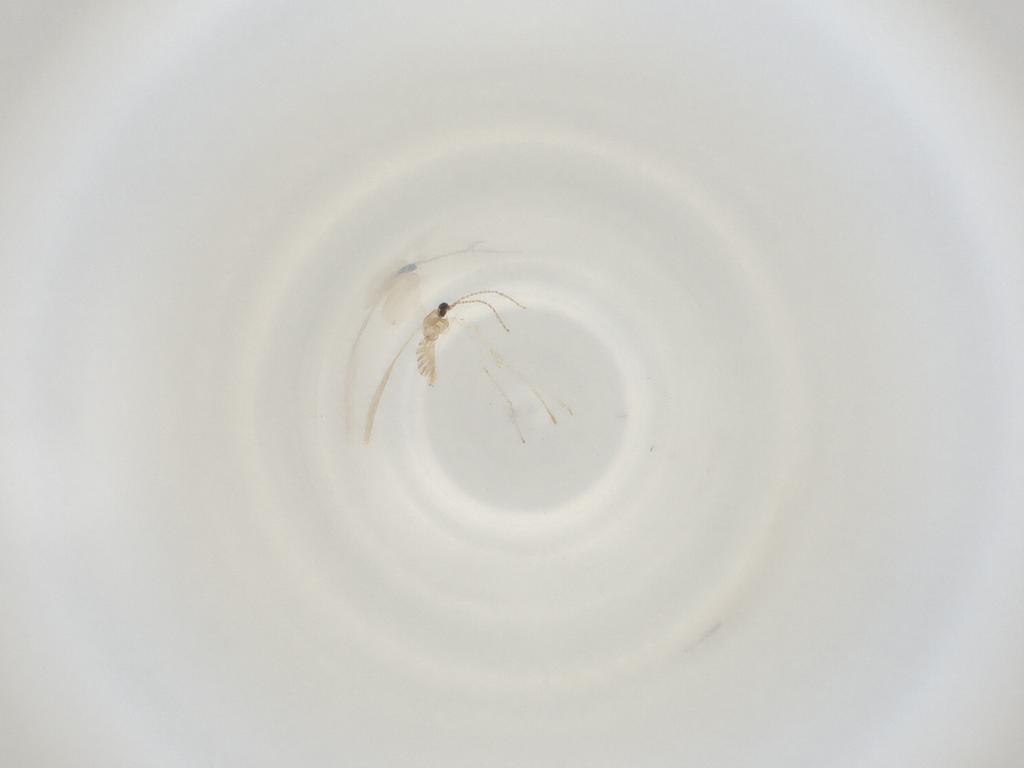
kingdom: Animalia
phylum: Arthropoda
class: Insecta
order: Diptera
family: Cecidomyiidae
